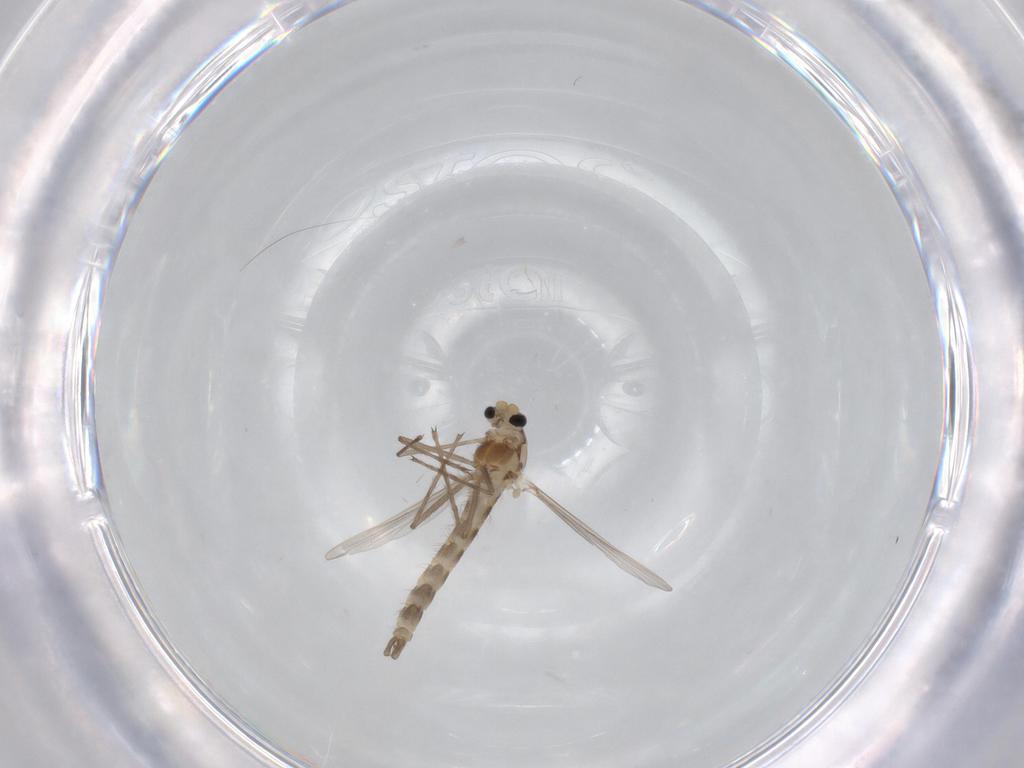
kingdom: Animalia
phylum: Arthropoda
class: Insecta
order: Diptera
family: Chironomidae
